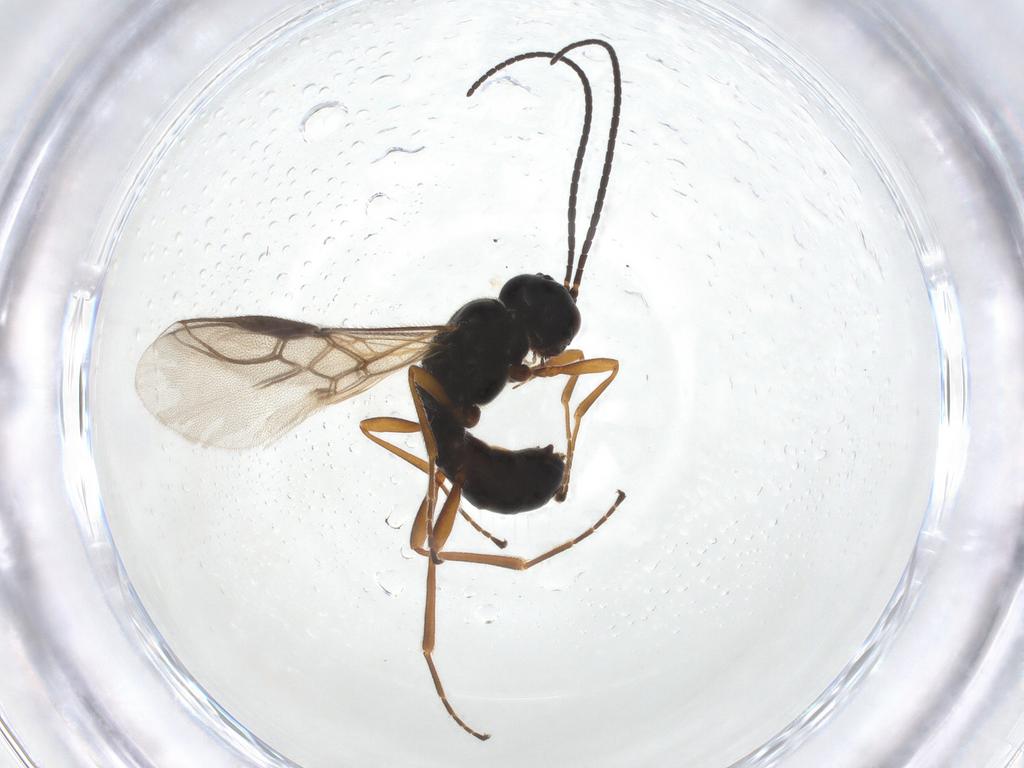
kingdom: Animalia
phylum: Arthropoda
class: Insecta
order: Hymenoptera
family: Braconidae
